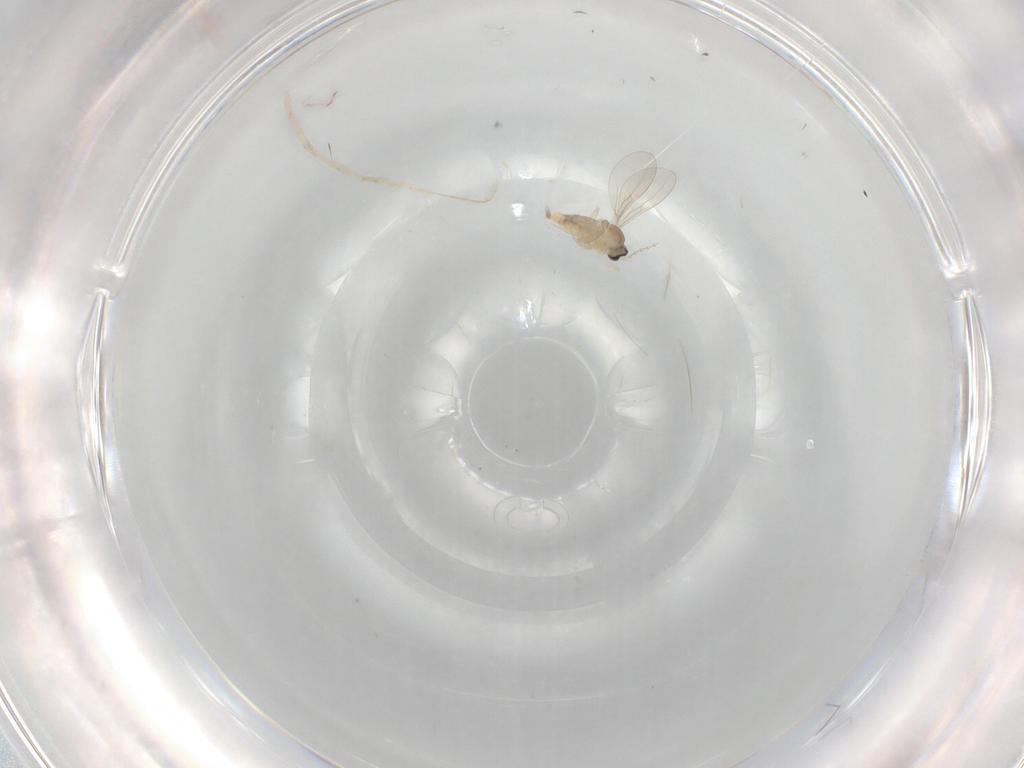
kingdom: Animalia
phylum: Arthropoda
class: Insecta
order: Diptera
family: Cecidomyiidae
